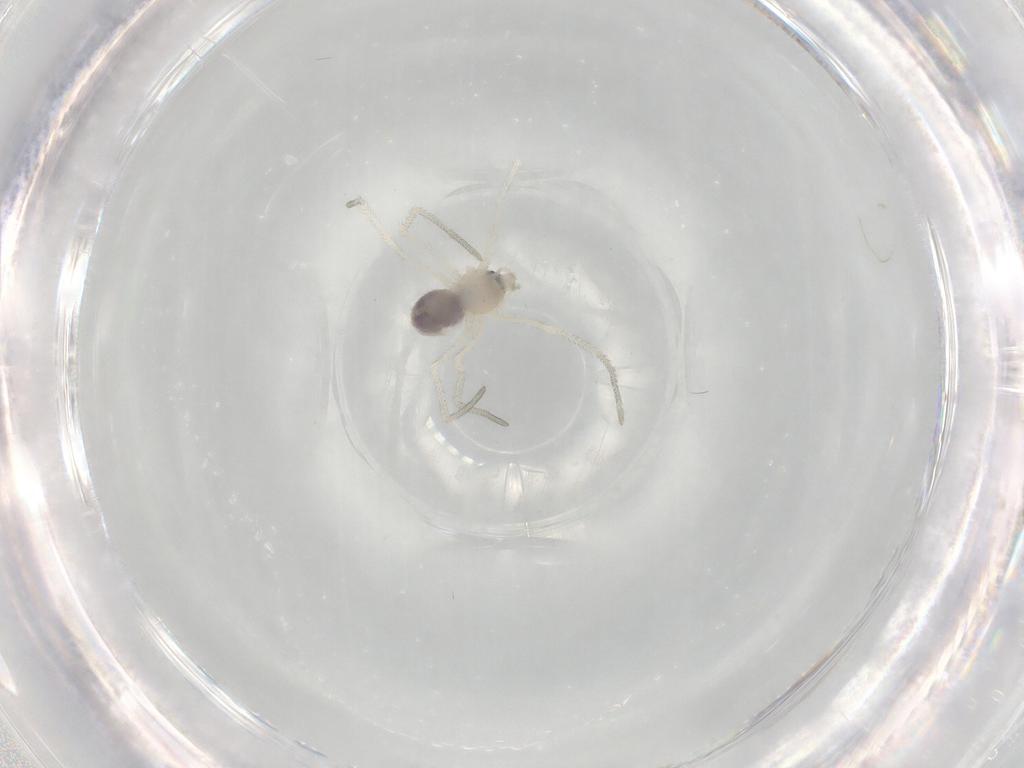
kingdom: Animalia
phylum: Arthropoda
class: Arachnida
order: Araneae
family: Pholcidae
